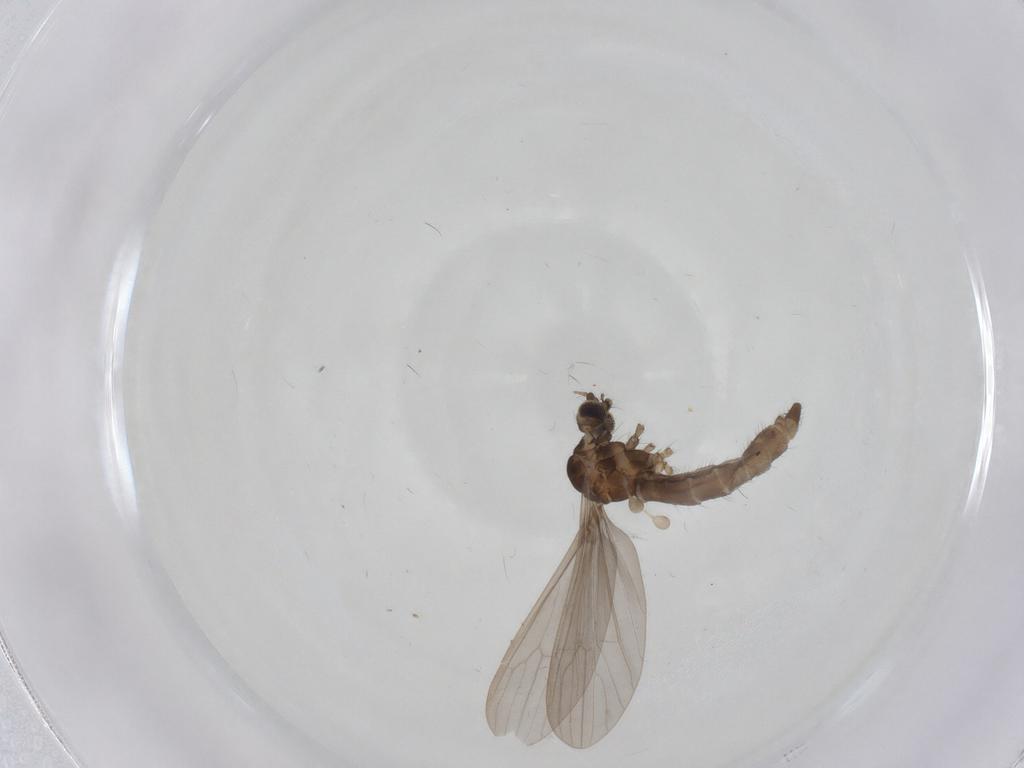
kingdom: Animalia
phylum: Arthropoda
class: Insecta
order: Diptera
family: Limoniidae
